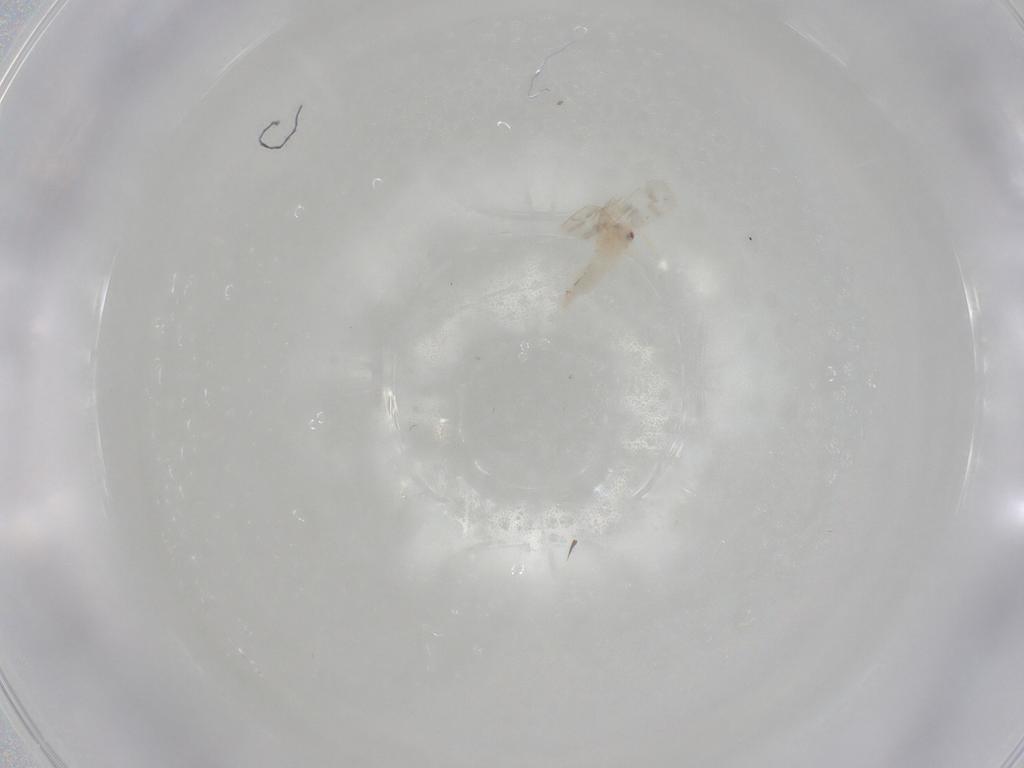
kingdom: Animalia
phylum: Arthropoda
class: Insecta
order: Hemiptera
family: Aleyrodidae
